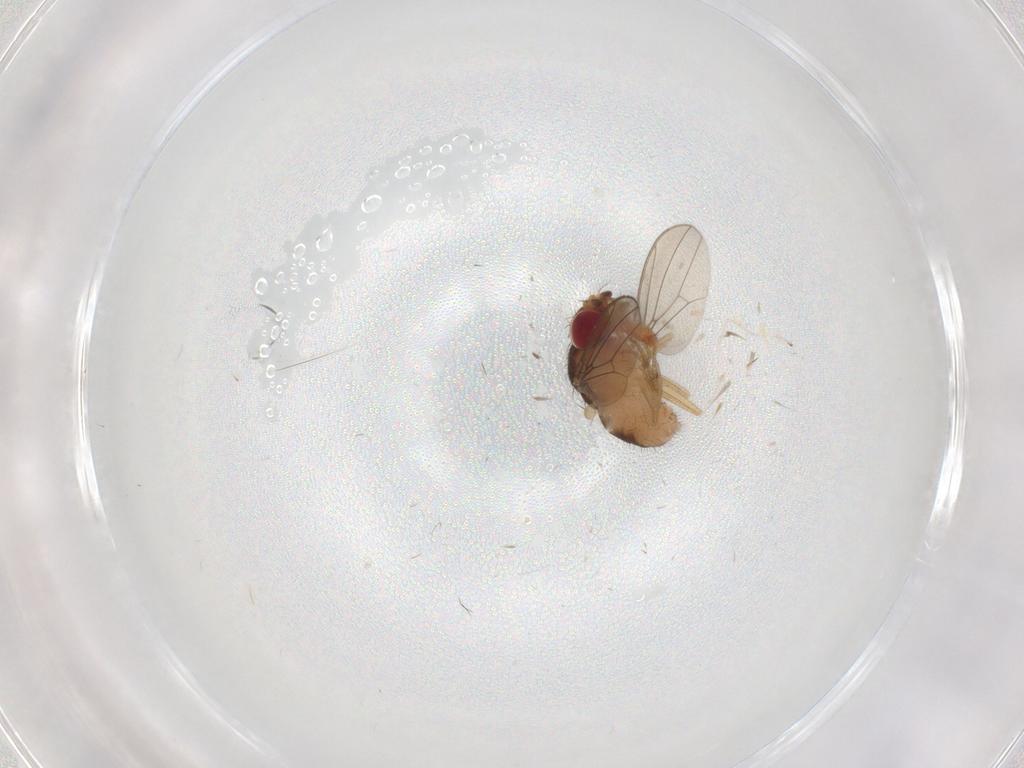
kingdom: Animalia
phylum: Arthropoda
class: Insecta
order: Diptera
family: Drosophilidae
